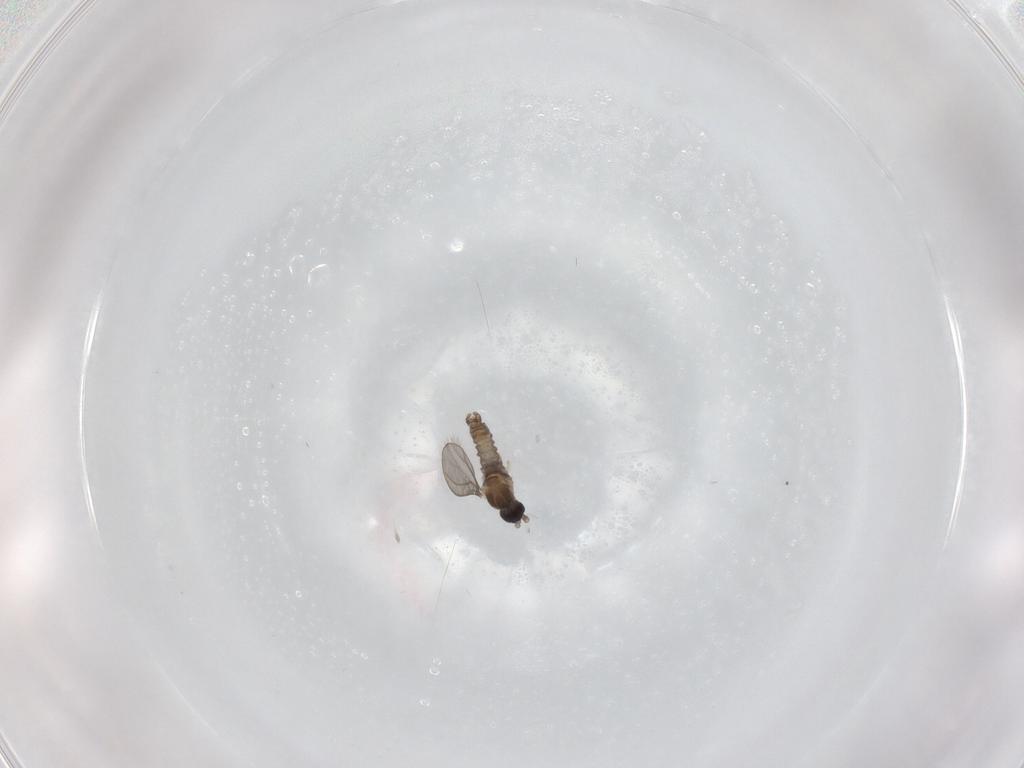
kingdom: Animalia
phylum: Arthropoda
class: Insecta
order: Diptera
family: Cecidomyiidae
